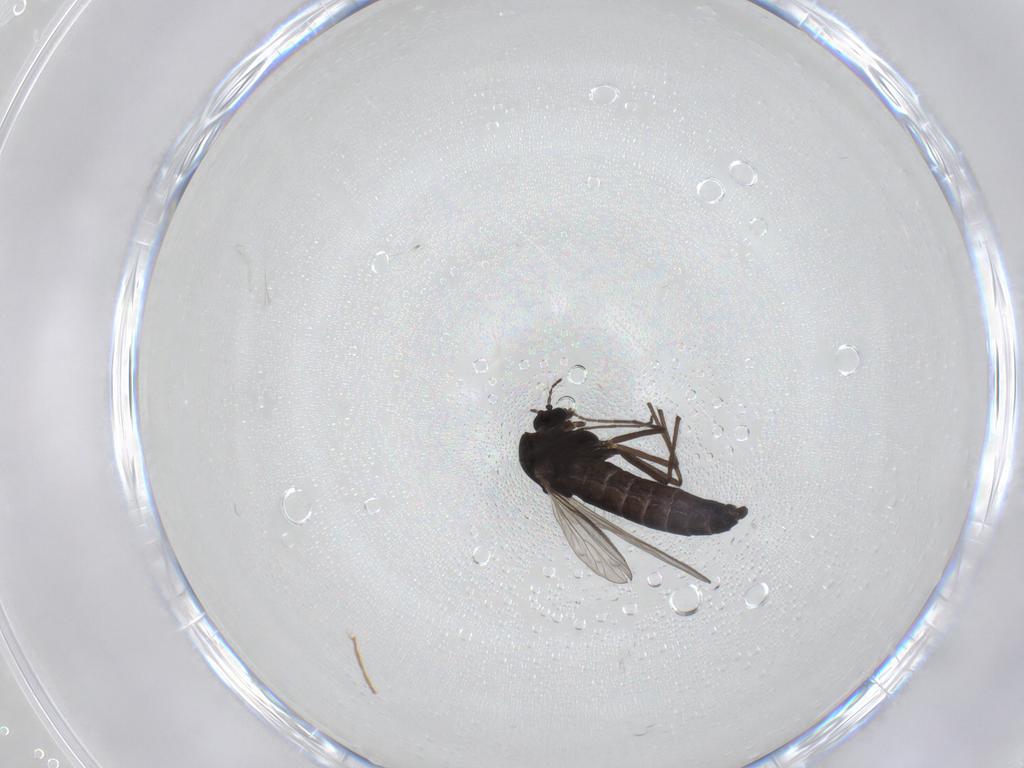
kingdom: Animalia
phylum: Arthropoda
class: Insecta
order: Diptera
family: Chironomidae
